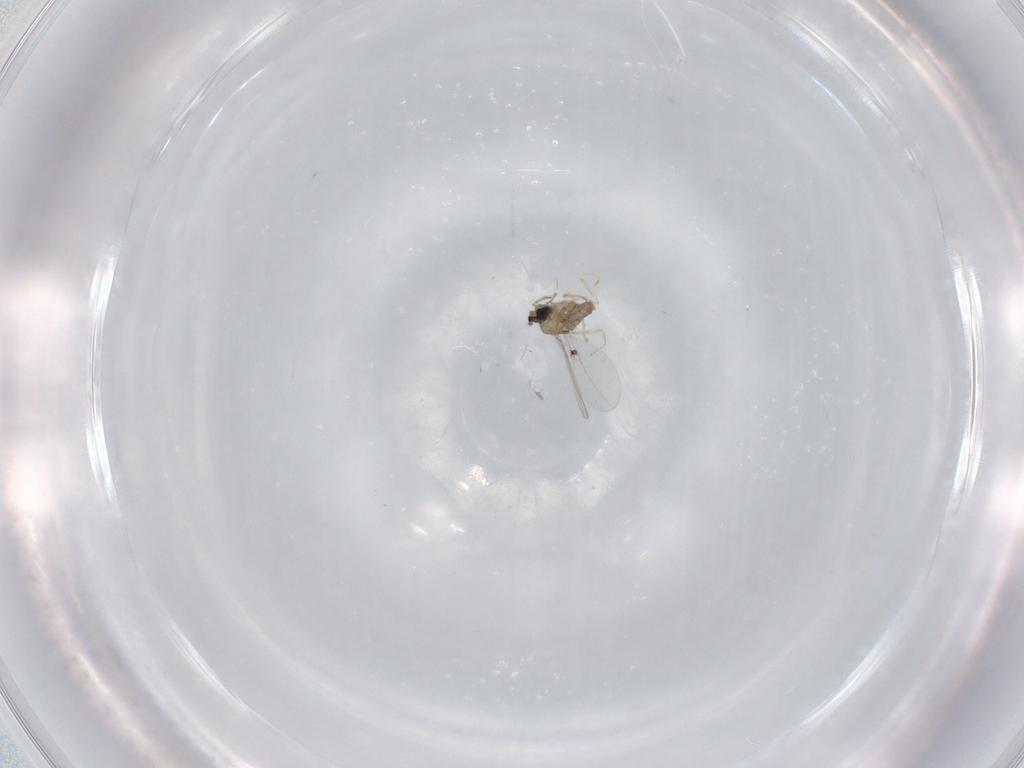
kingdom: Animalia
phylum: Arthropoda
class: Insecta
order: Diptera
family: Cecidomyiidae
